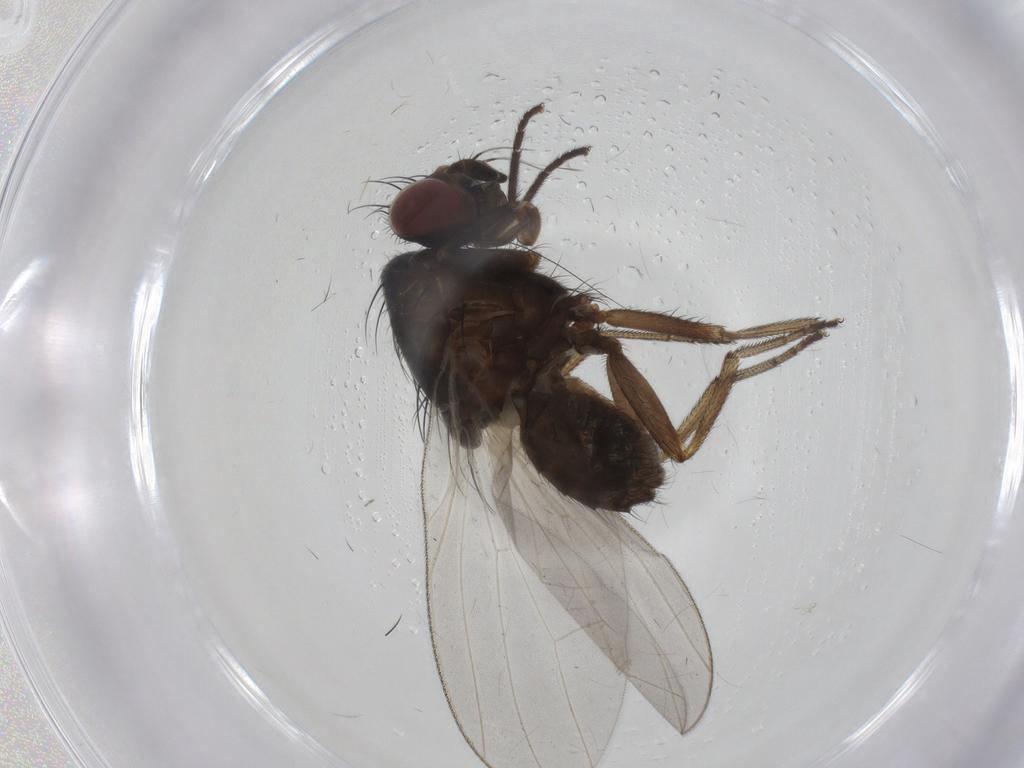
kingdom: Animalia
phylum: Arthropoda
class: Insecta
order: Diptera
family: Lauxaniidae
